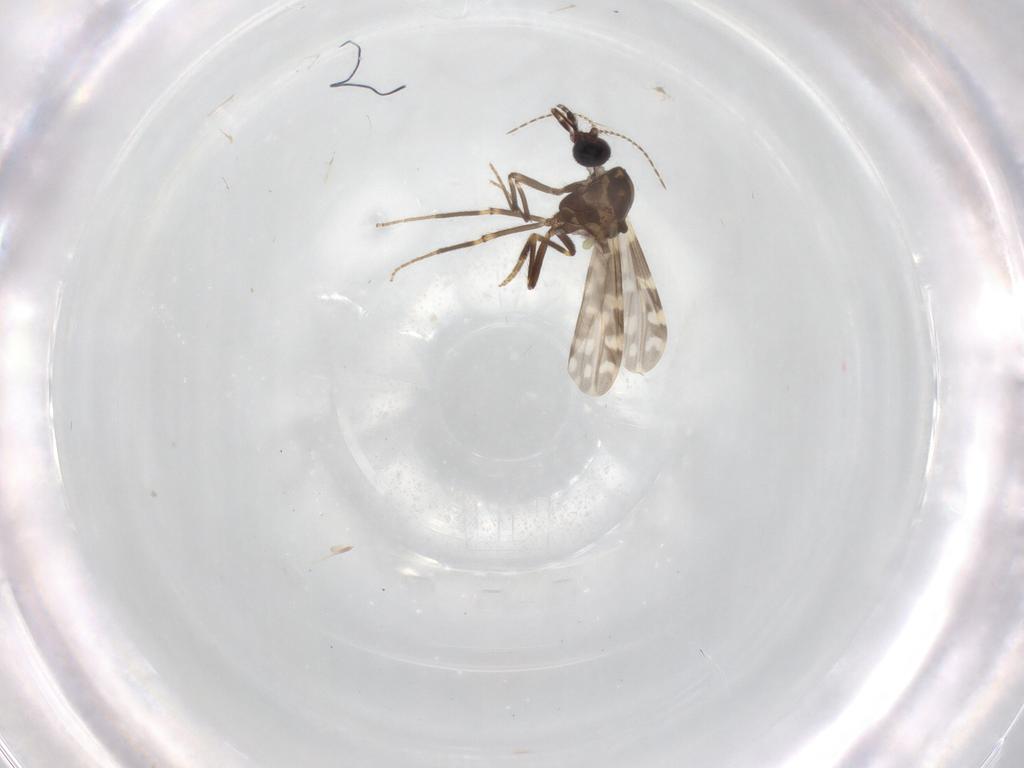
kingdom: Animalia
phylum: Arthropoda
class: Insecta
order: Diptera
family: Ceratopogonidae
